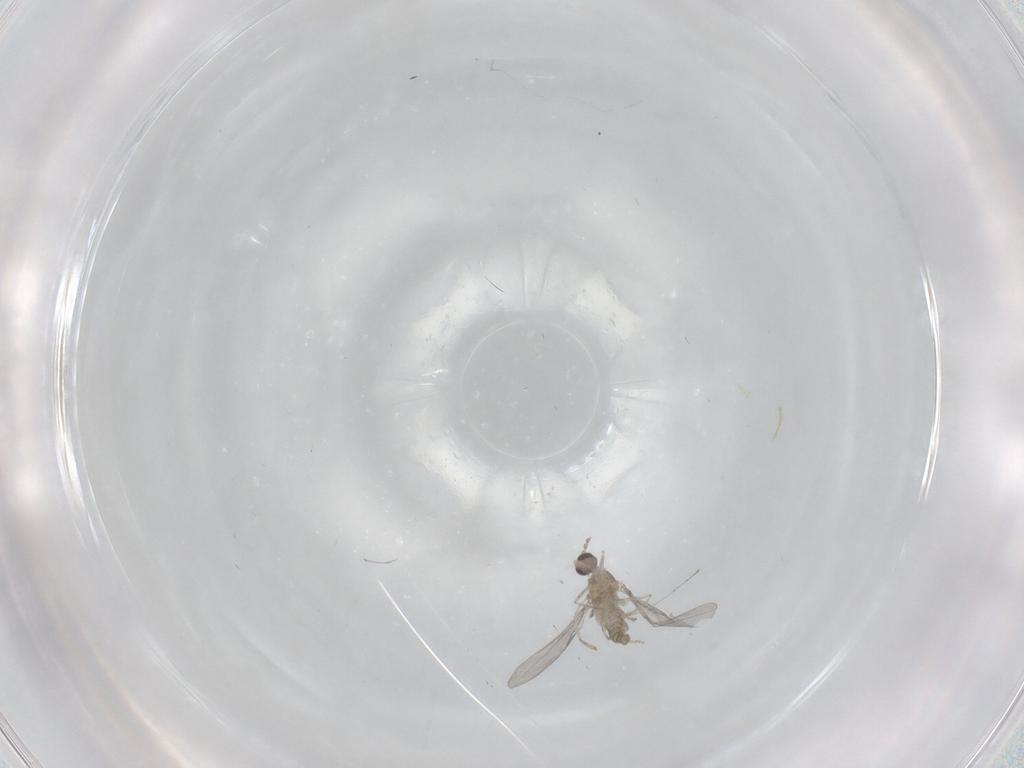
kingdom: Animalia
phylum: Arthropoda
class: Insecta
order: Diptera
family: Cecidomyiidae
